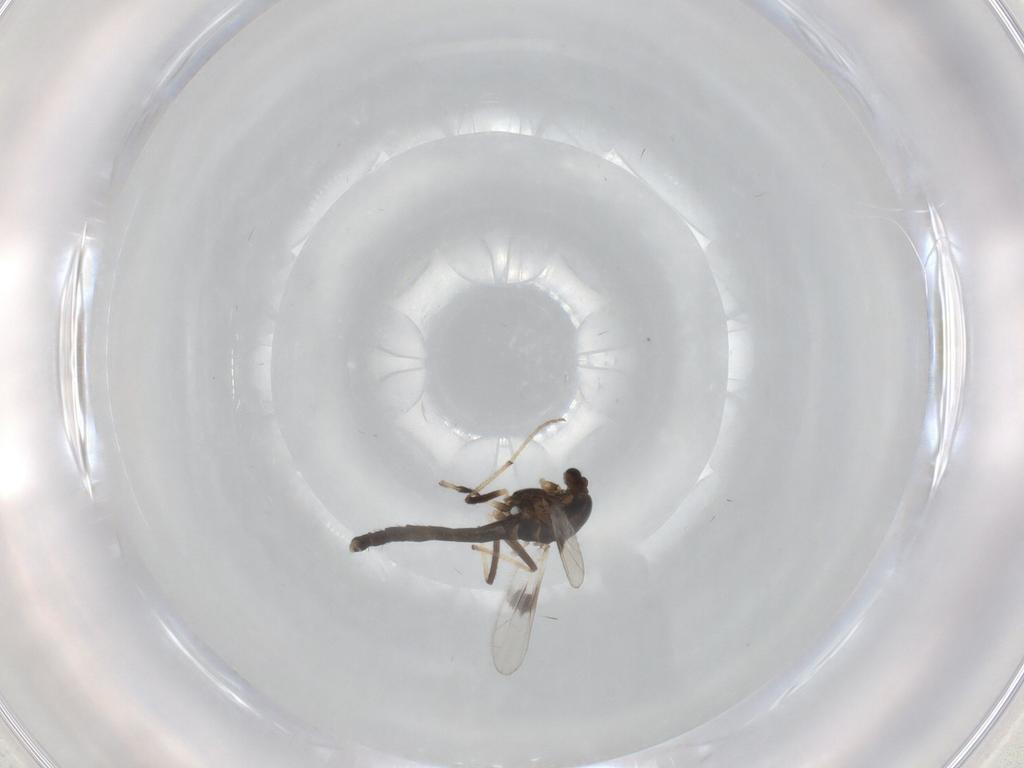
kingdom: Animalia
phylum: Arthropoda
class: Insecta
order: Diptera
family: Chironomidae
